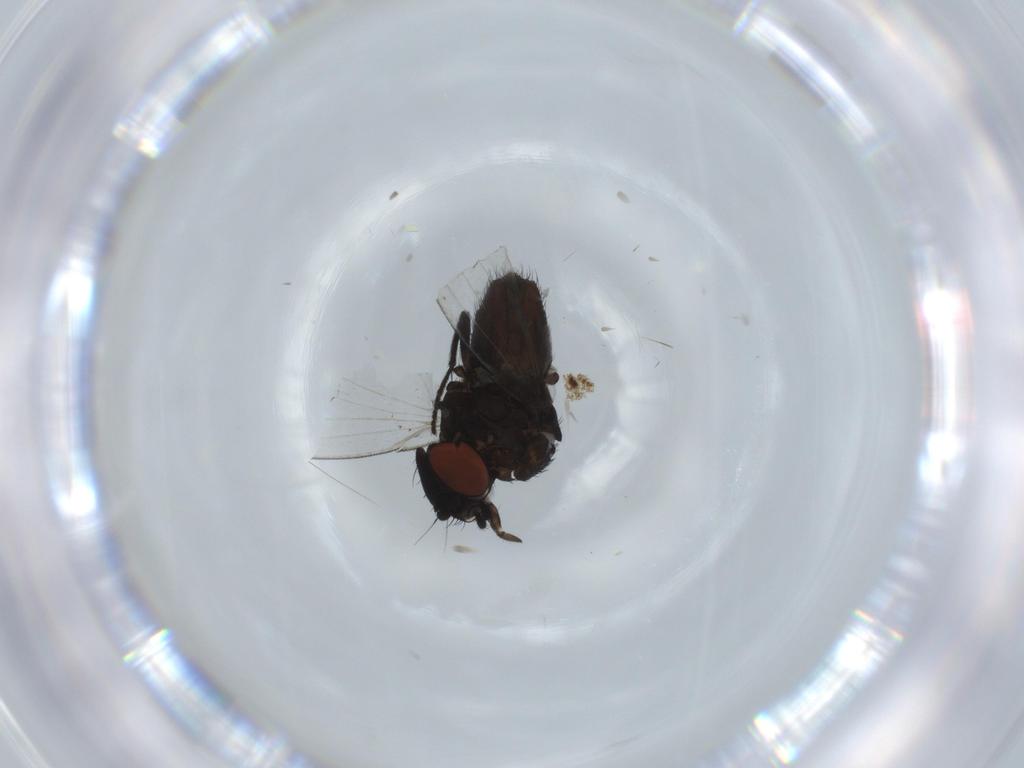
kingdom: Animalia
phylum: Arthropoda
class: Insecta
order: Diptera
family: Milichiidae
